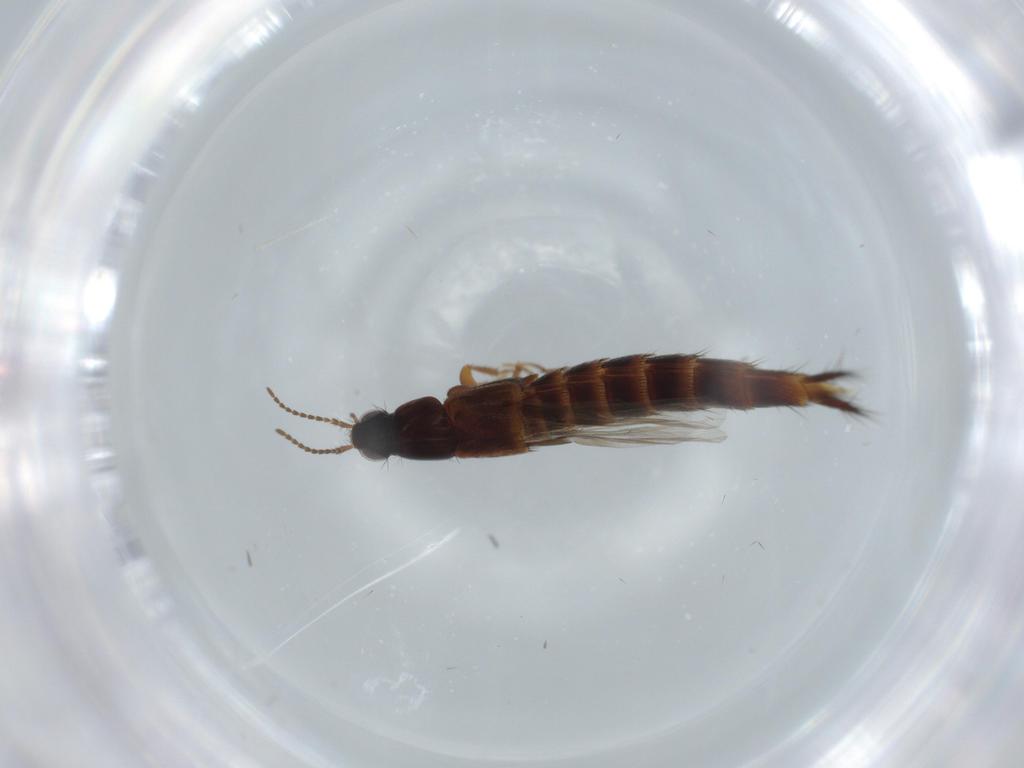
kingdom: Animalia
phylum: Arthropoda
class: Insecta
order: Coleoptera
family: Staphylinidae
